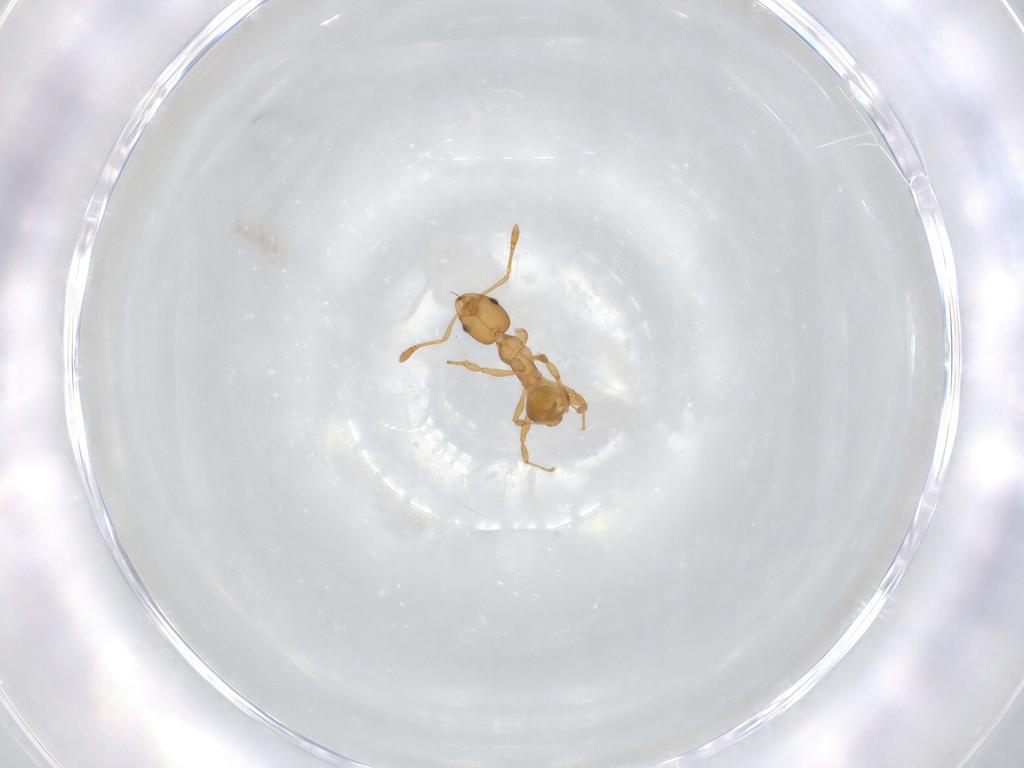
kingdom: Animalia
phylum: Arthropoda
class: Insecta
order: Hymenoptera
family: Formicidae
